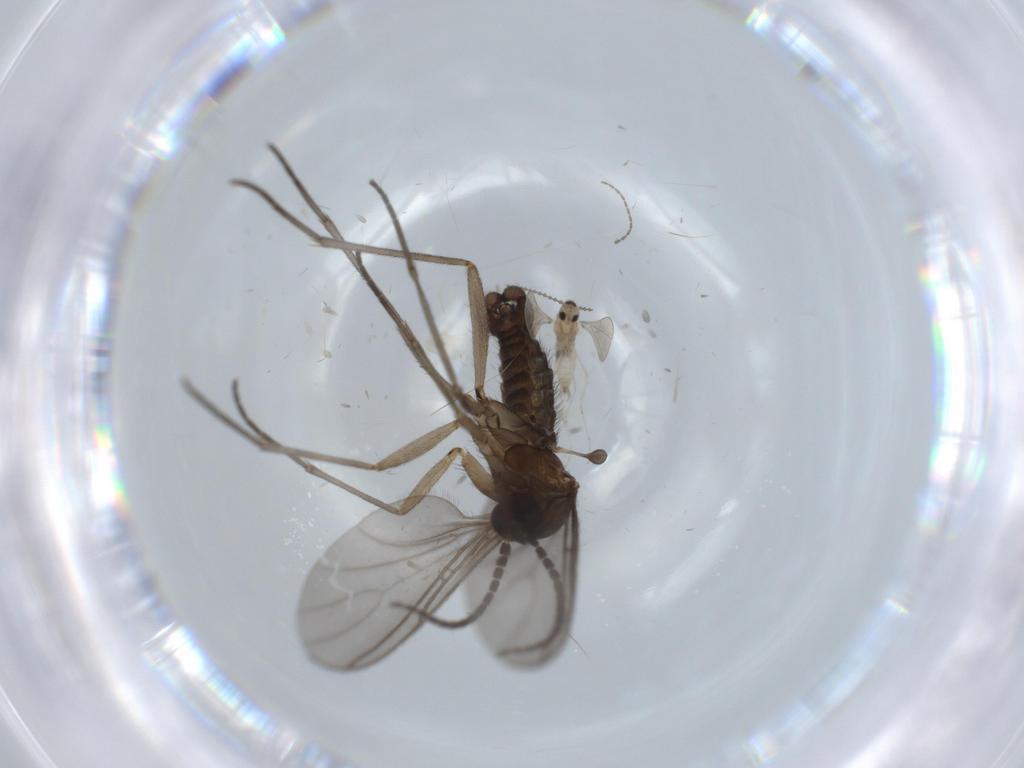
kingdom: Animalia
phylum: Arthropoda
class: Insecta
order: Diptera
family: Sciaridae
